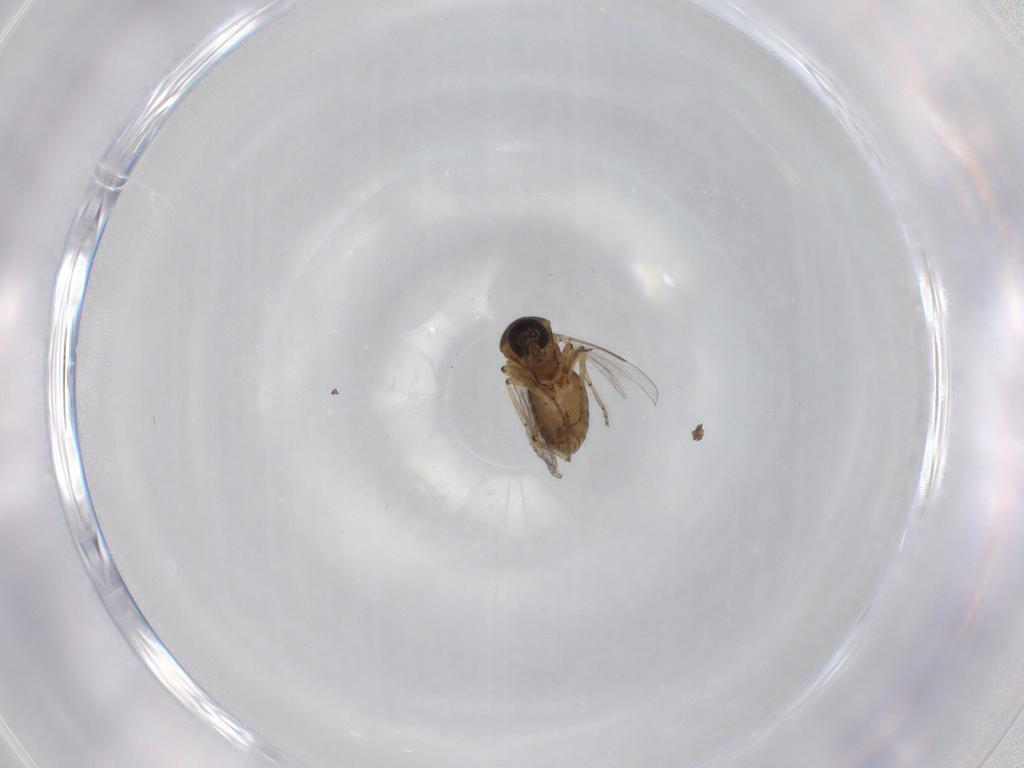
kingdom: Animalia
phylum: Arthropoda
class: Insecta
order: Diptera
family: Ceratopogonidae
